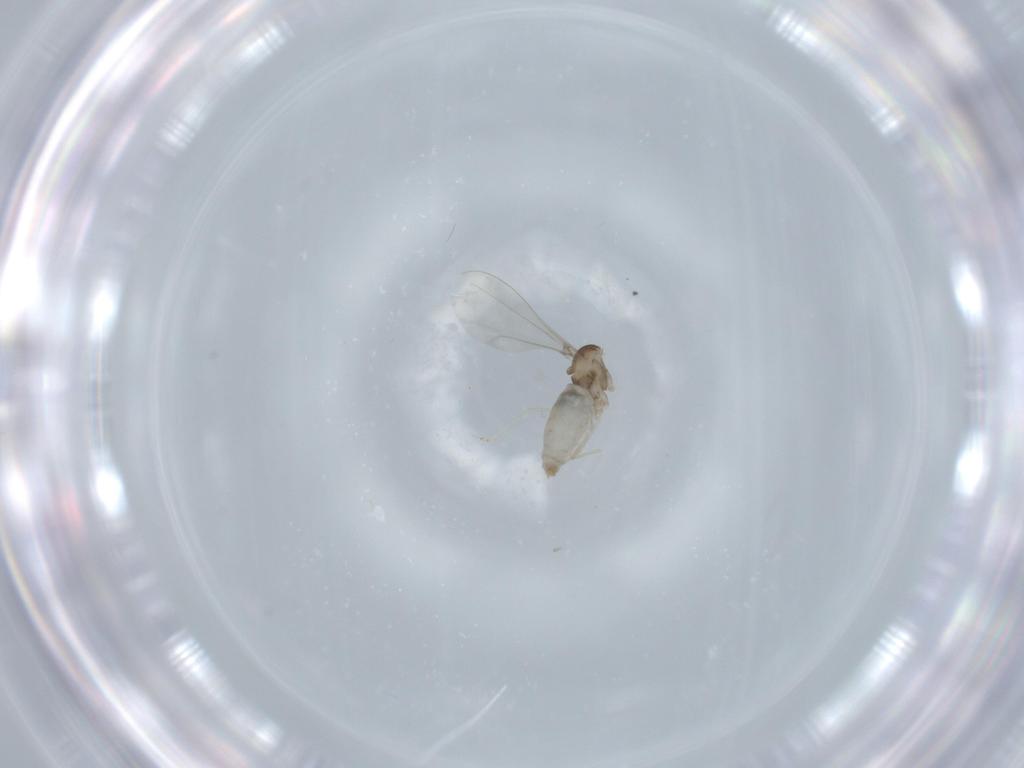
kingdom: Animalia
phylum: Arthropoda
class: Insecta
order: Diptera
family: Cecidomyiidae
